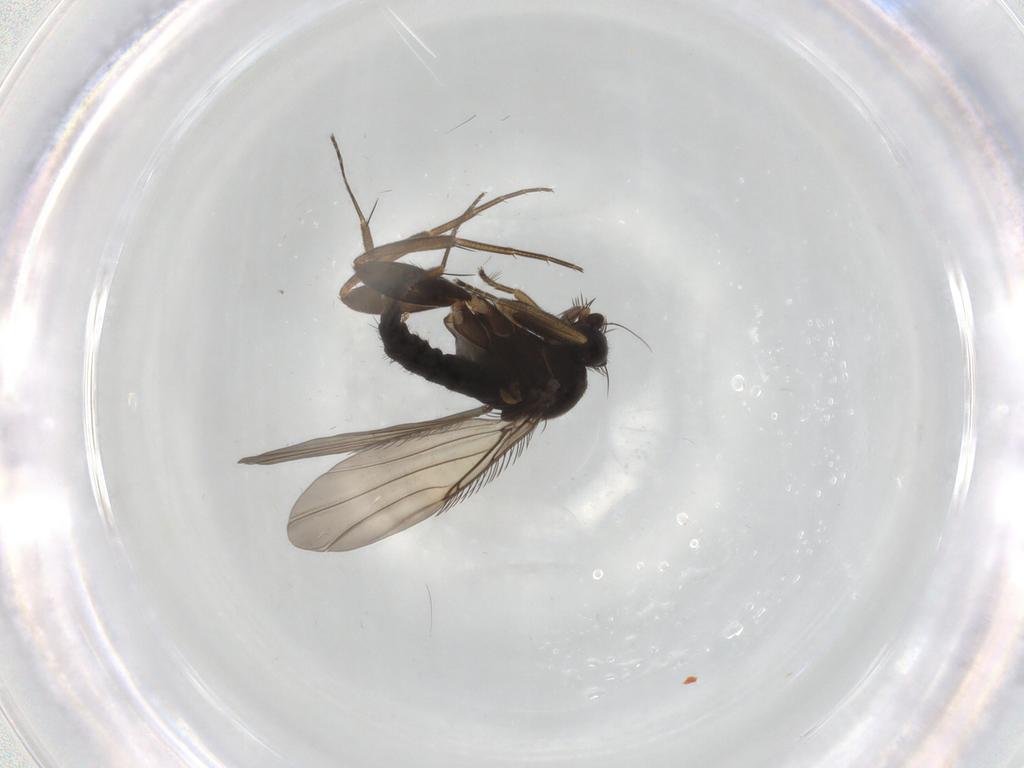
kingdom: Animalia
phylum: Arthropoda
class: Insecta
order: Diptera
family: Phoridae
